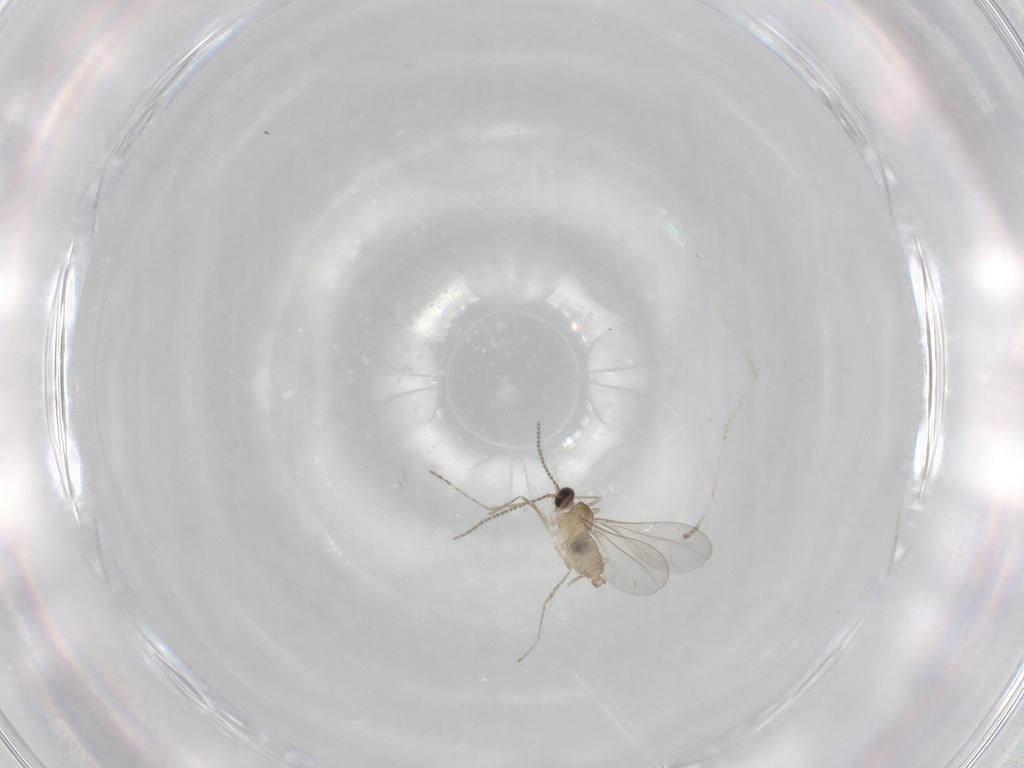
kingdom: Animalia
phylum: Arthropoda
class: Insecta
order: Diptera
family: Cecidomyiidae
